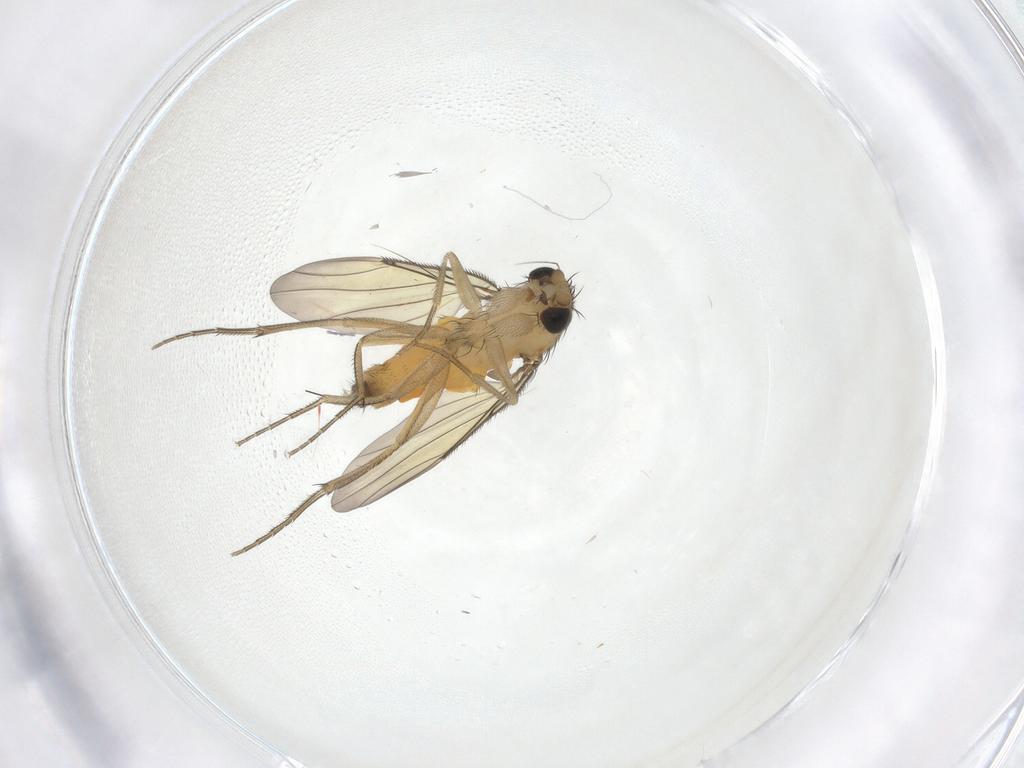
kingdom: Animalia
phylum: Arthropoda
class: Insecta
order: Diptera
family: Phoridae
